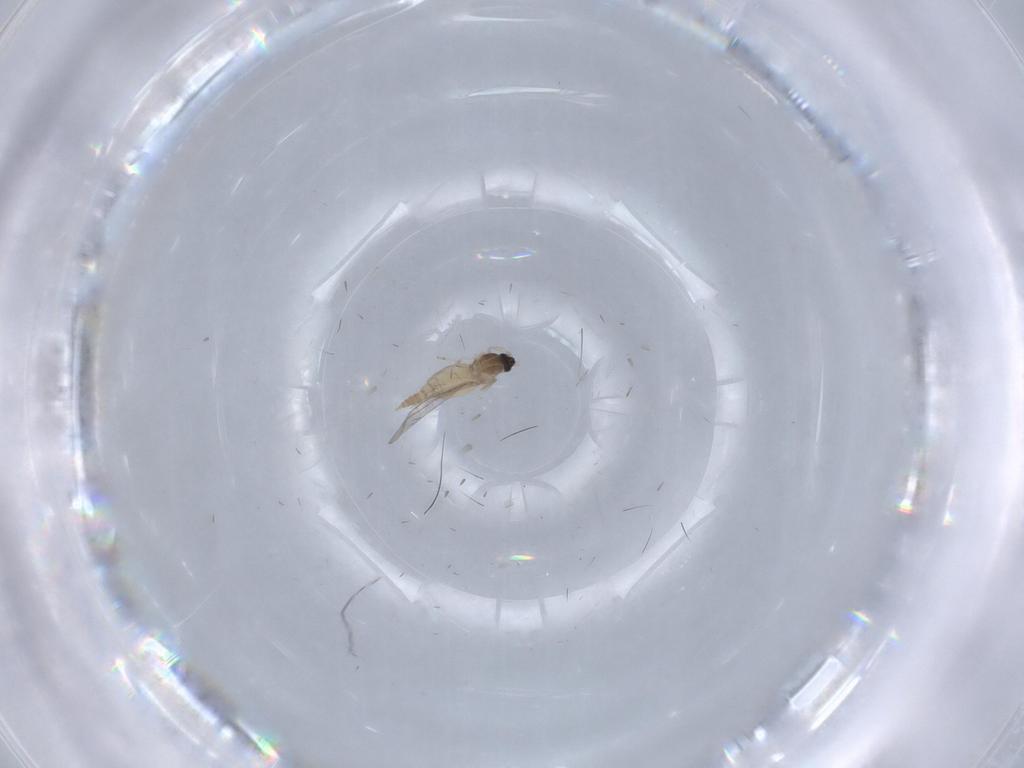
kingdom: Animalia
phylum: Arthropoda
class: Insecta
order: Diptera
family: Cecidomyiidae
